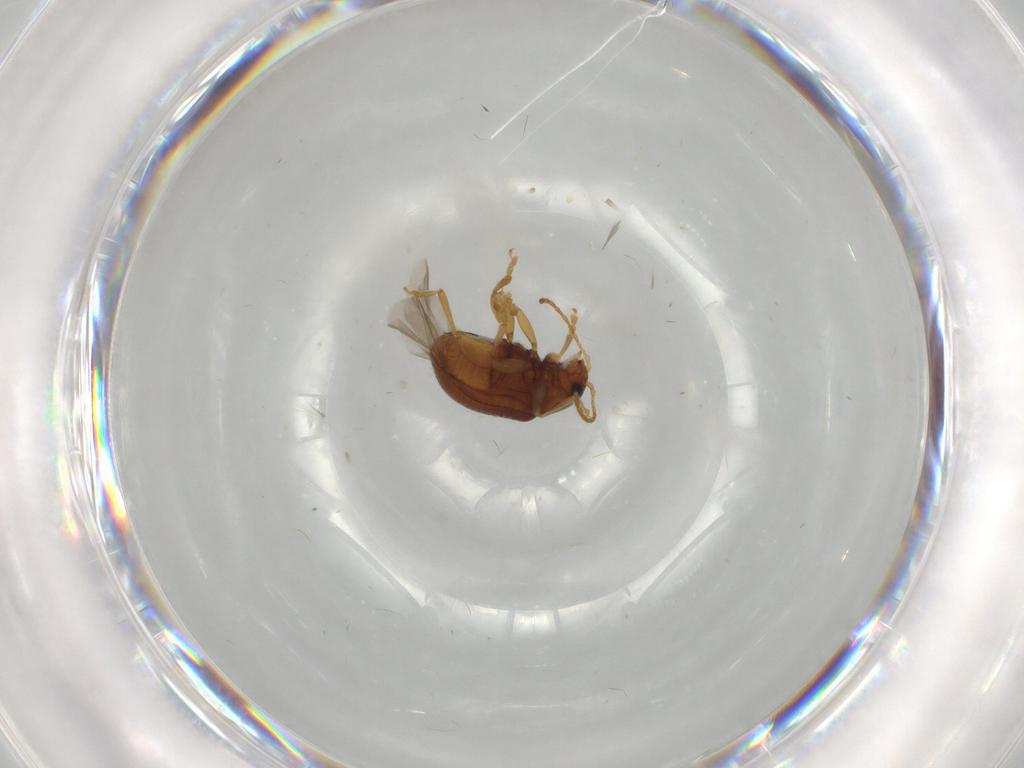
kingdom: Animalia
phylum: Arthropoda
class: Insecta
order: Coleoptera
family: Chrysomelidae
